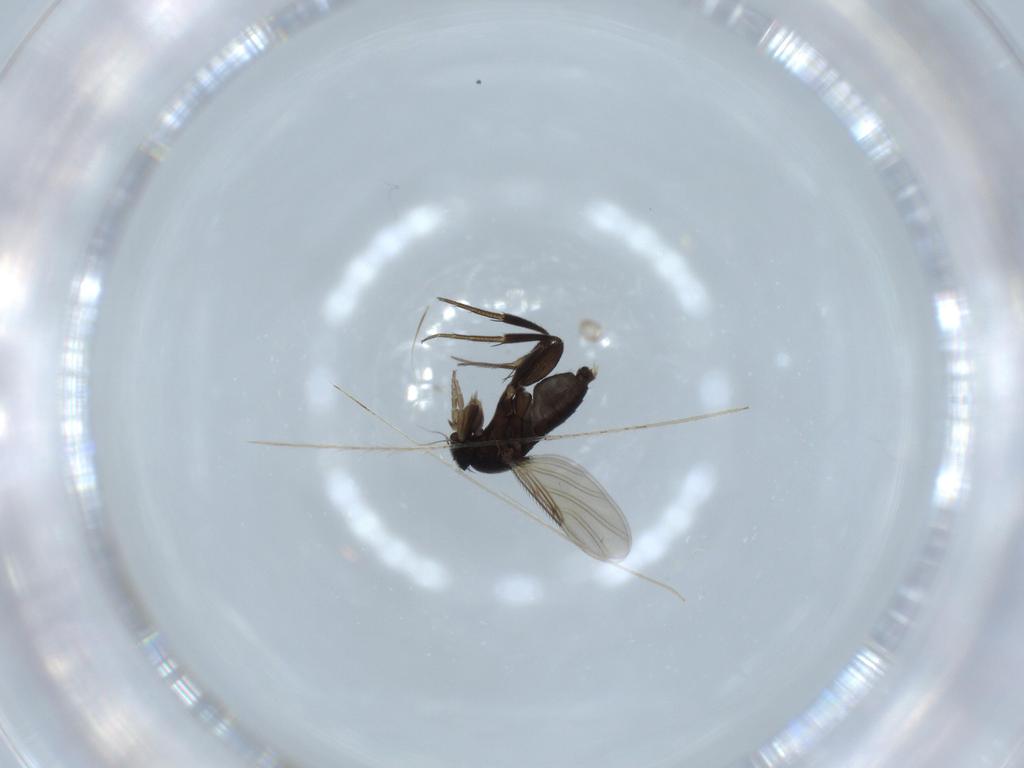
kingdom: Animalia
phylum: Arthropoda
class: Insecta
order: Diptera
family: Phoridae
